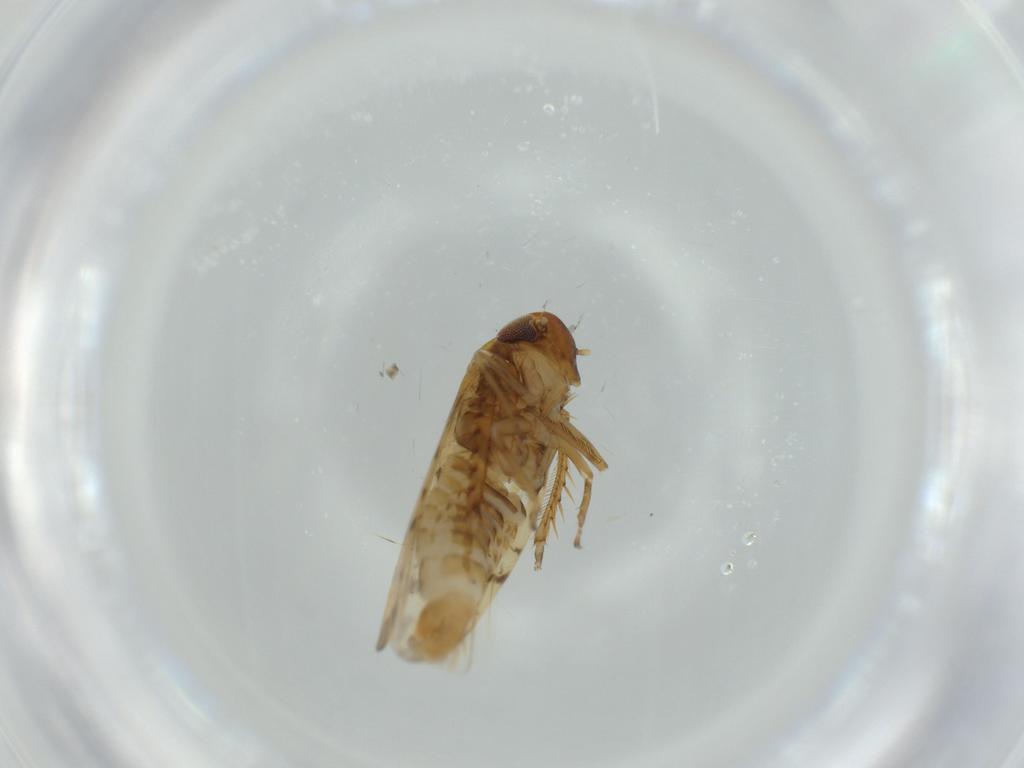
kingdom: Animalia
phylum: Arthropoda
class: Insecta
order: Hemiptera
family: Cicadellidae
